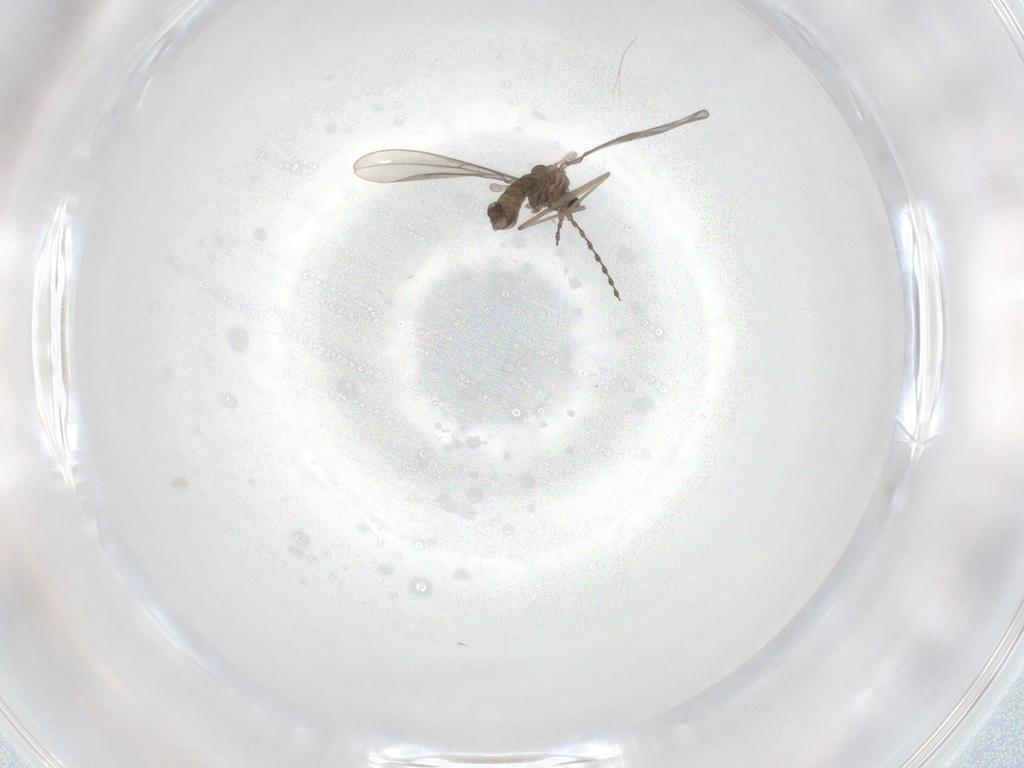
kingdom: Animalia
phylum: Arthropoda
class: Insecta
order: Diptera
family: Cecidomyiidae
